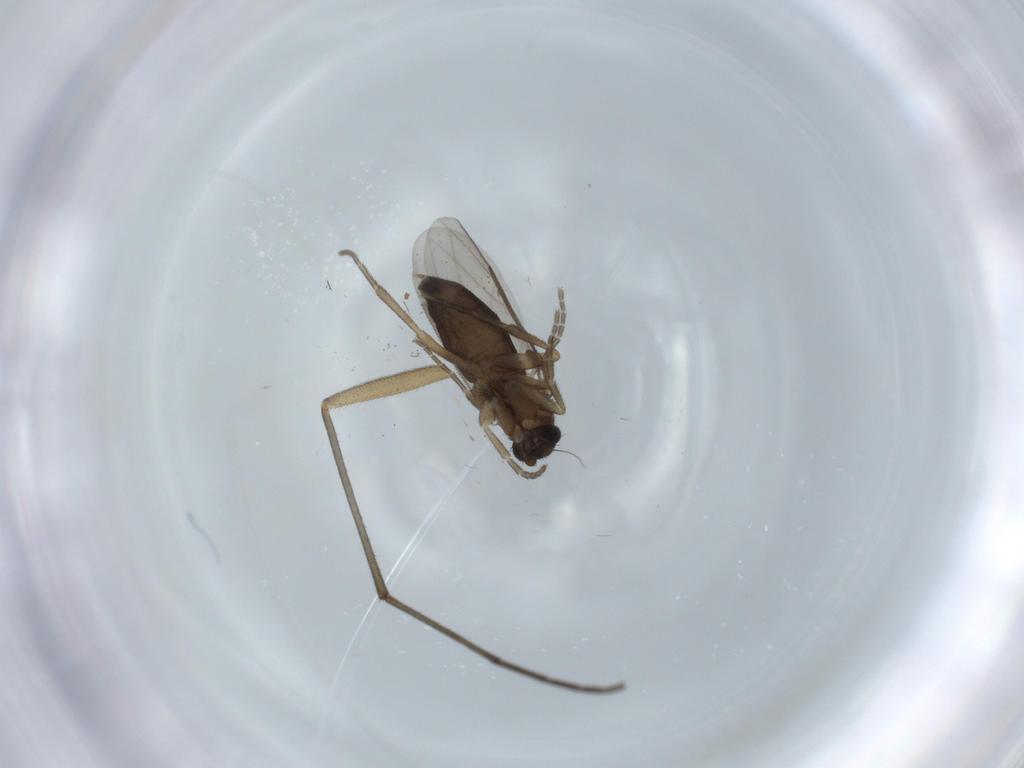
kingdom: Animalia
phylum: Arthropoda
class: Insecta
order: Diptera
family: Sciaridae
